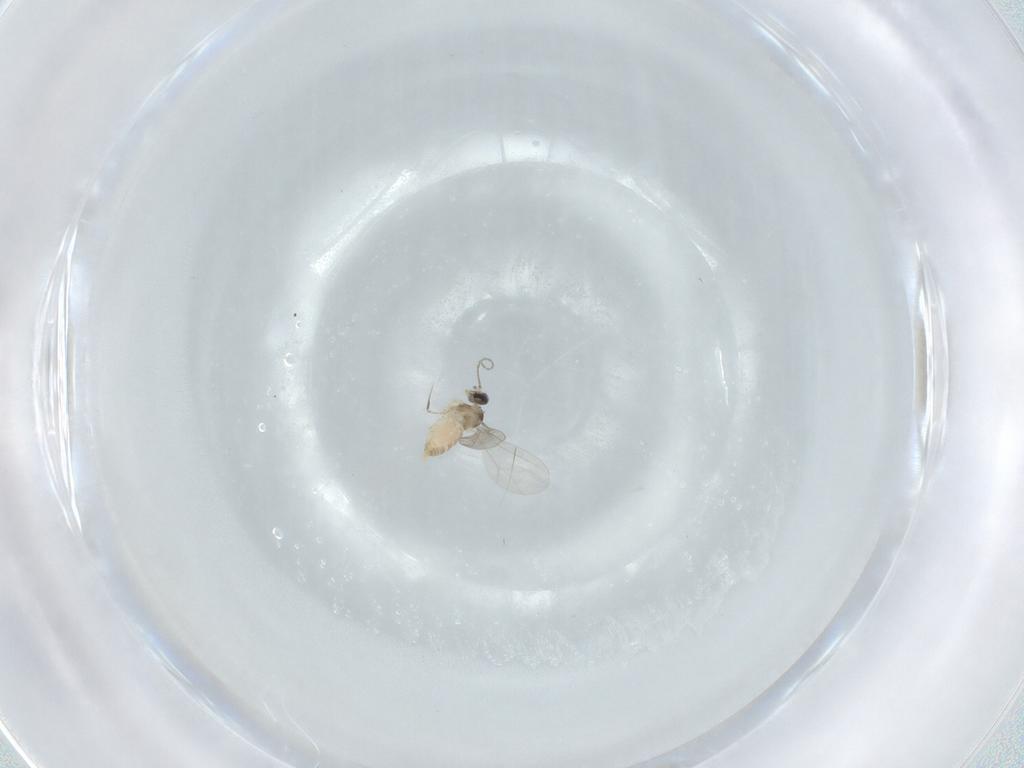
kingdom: Animalia
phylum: Arthropoda
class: Insecta
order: Diptera
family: Cecidomyiidae
